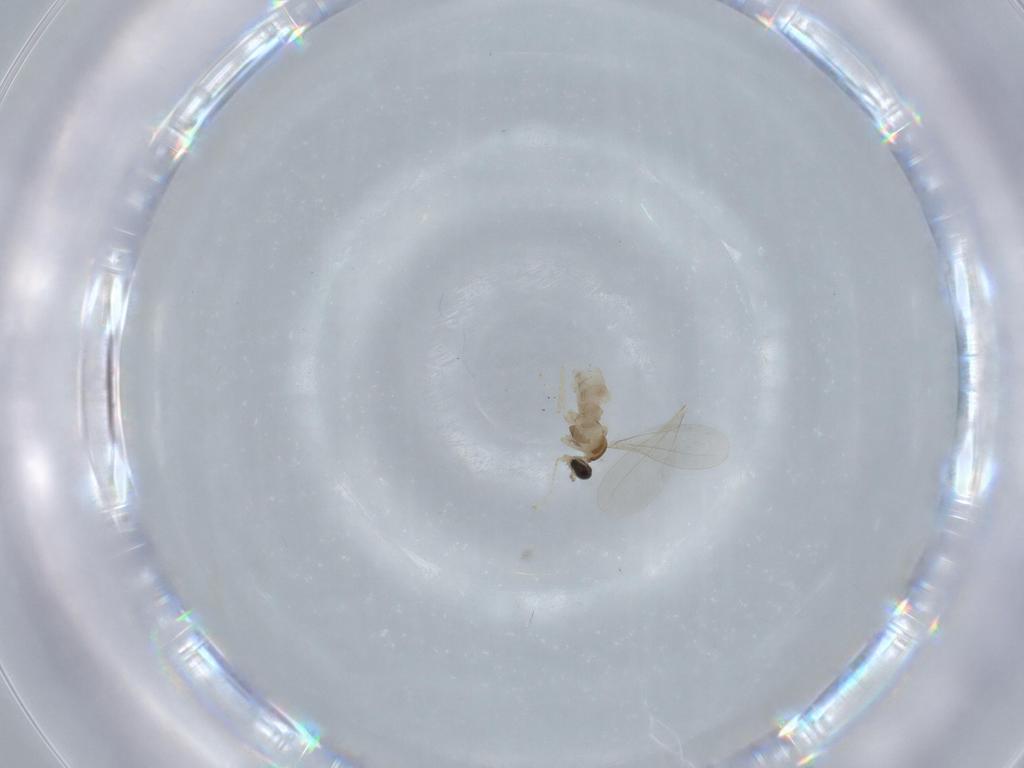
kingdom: Animalia
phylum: Arthropoda
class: Insecta
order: Diptera
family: Cecidomyiidae
